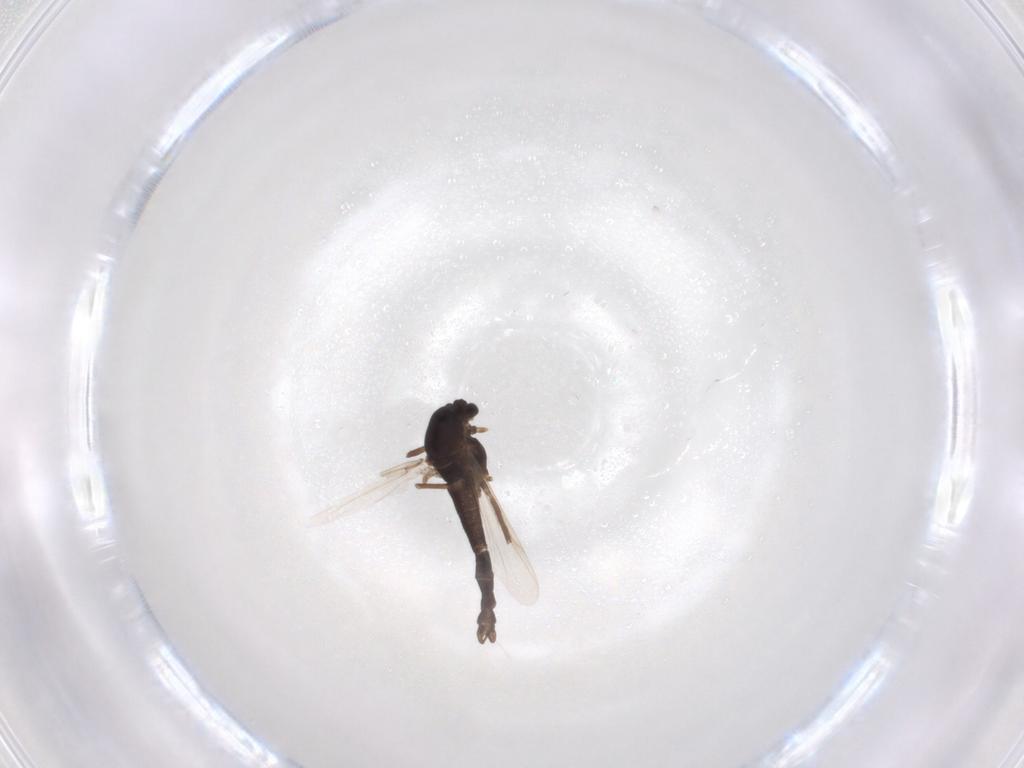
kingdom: Animalia
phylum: Arthropoda
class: Insecta
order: Diptera
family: Chironomidae
